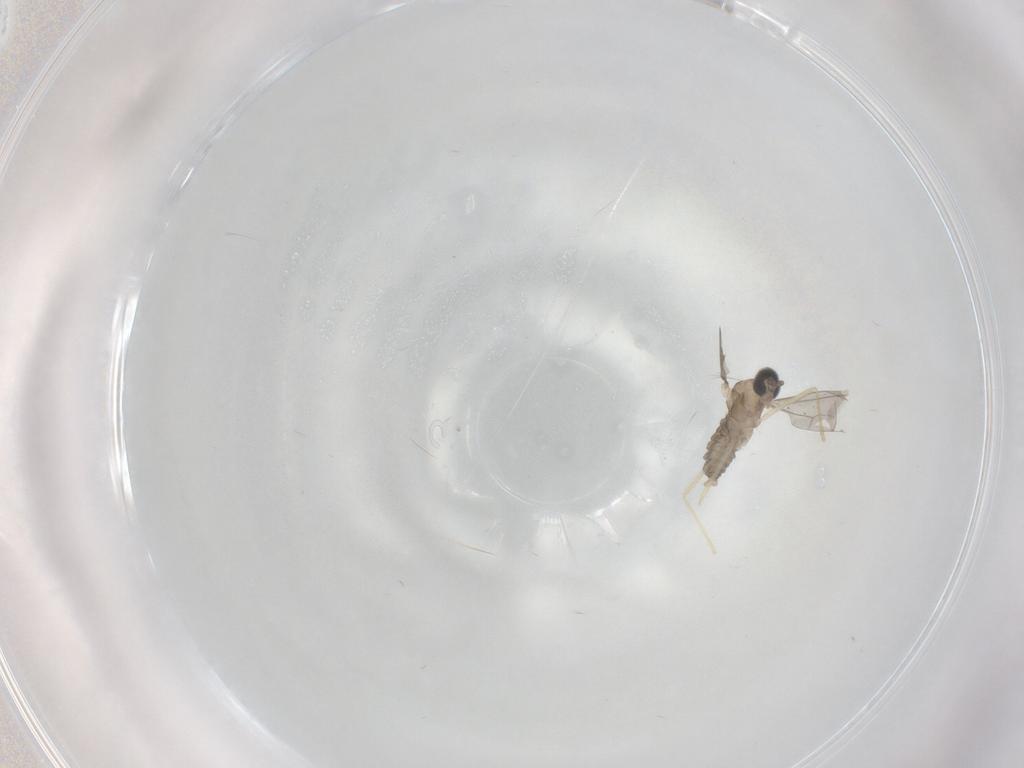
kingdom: Animalia
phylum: Arthropoda
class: Insecta
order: Diptera
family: Cecidomyiidae
